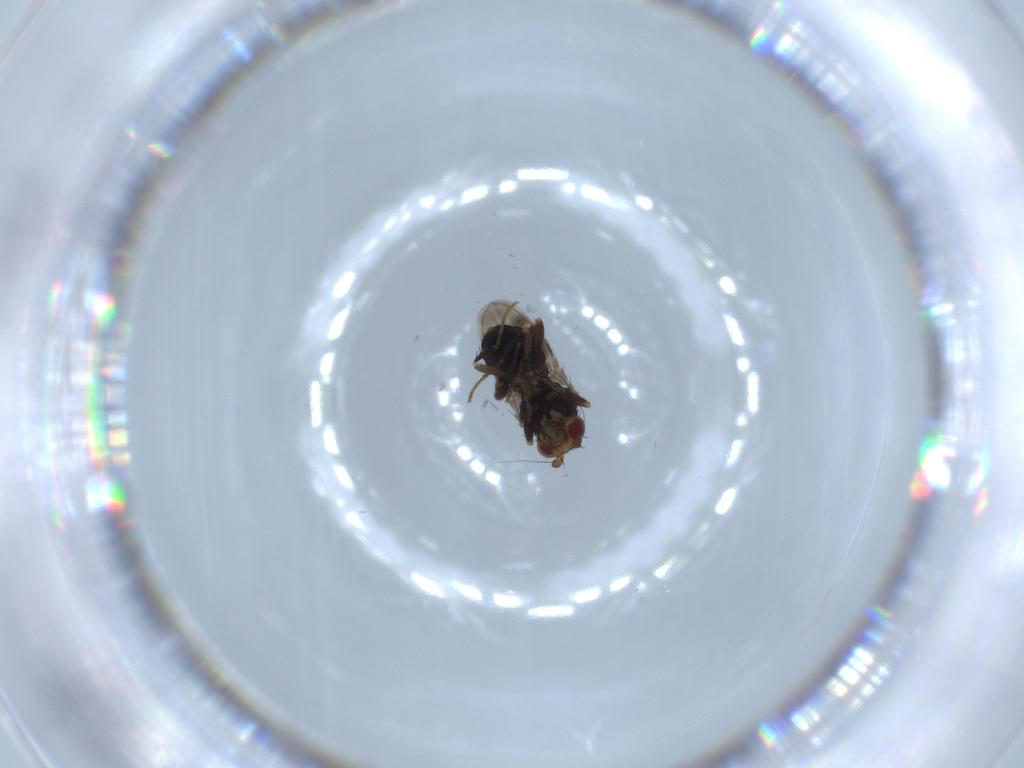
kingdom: Animalia
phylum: Arthropoda
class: Insecta
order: Diptera
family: Sphaeroceridae
